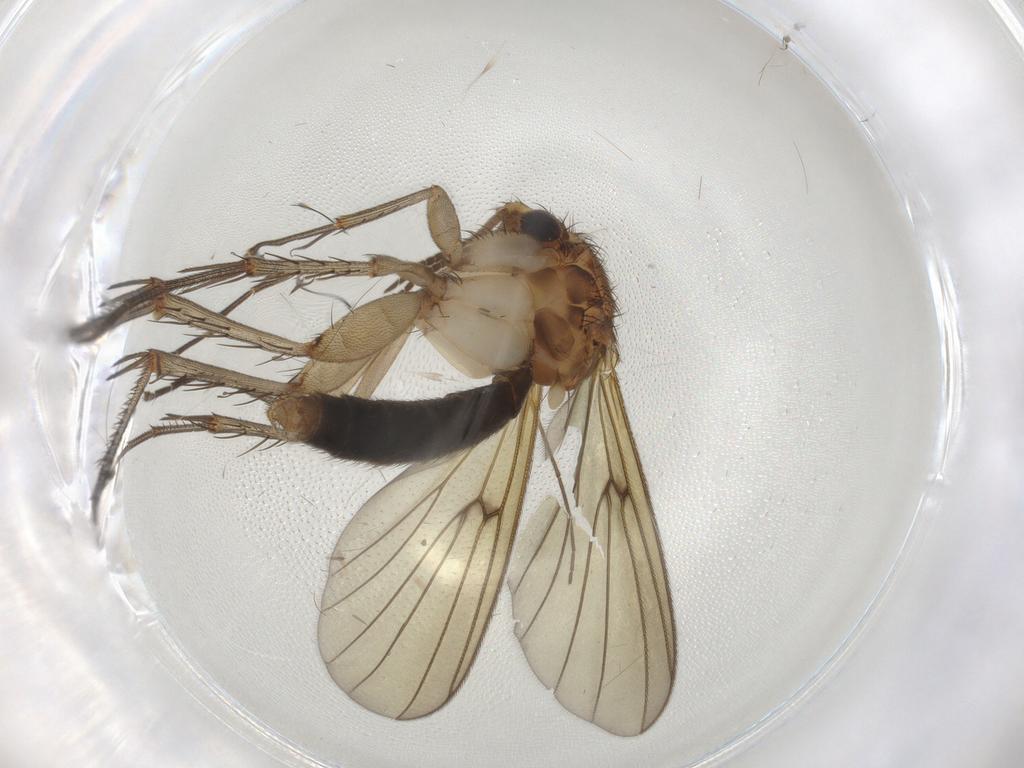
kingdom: Animalia
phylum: Arthropoda
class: Insecta
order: Diptera
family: Mycetophilidae
